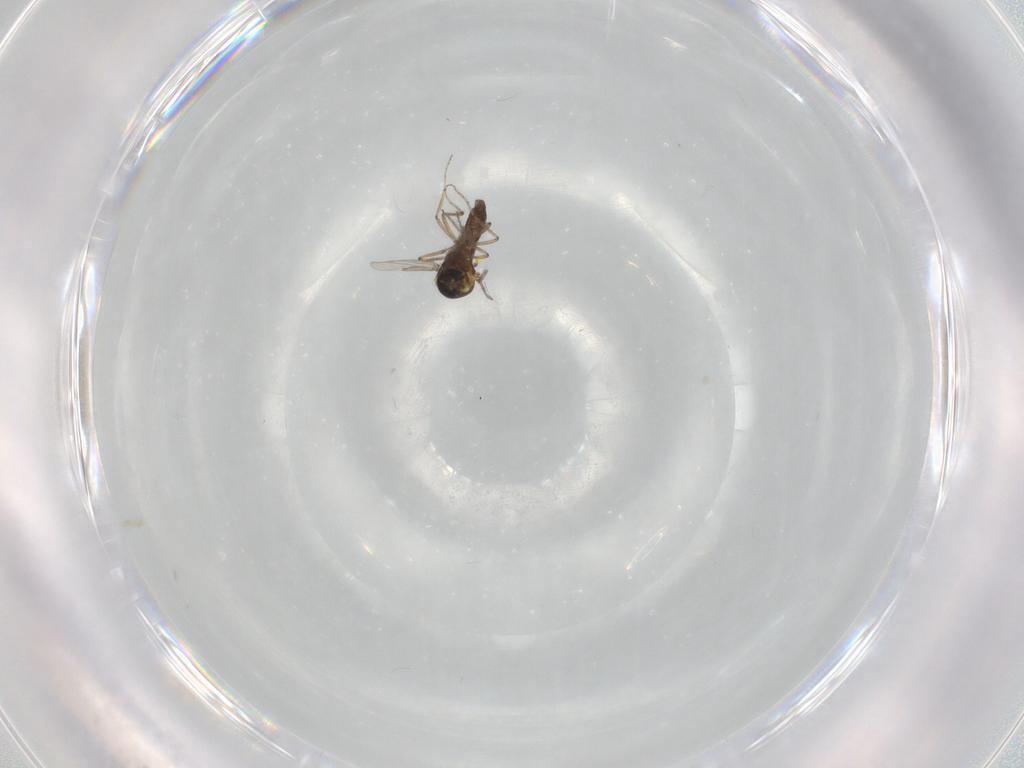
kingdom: Animalia
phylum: Arthropoda
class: Insecta
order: Diptera
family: Ceratopogonidae
